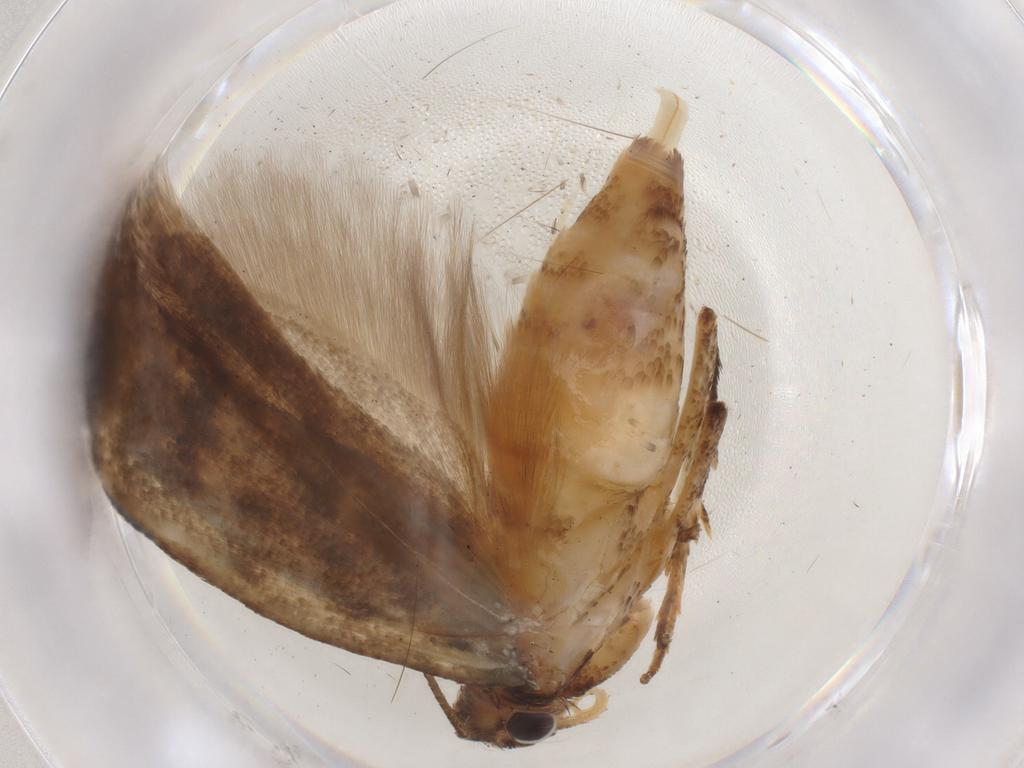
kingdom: Animalia
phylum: Arthropoda
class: Insecta
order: Lepidoptera
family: Gelechiidae
